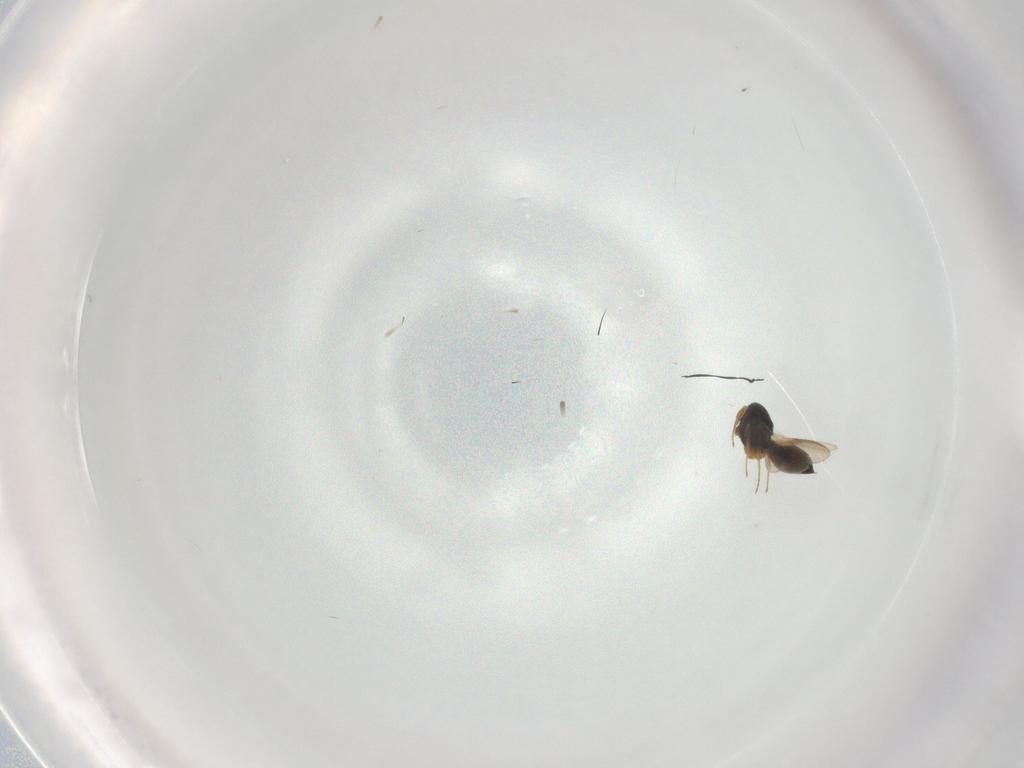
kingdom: Animalia
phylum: Arthropoda
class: Insecta
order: Hymenoptera
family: Scelionidae
